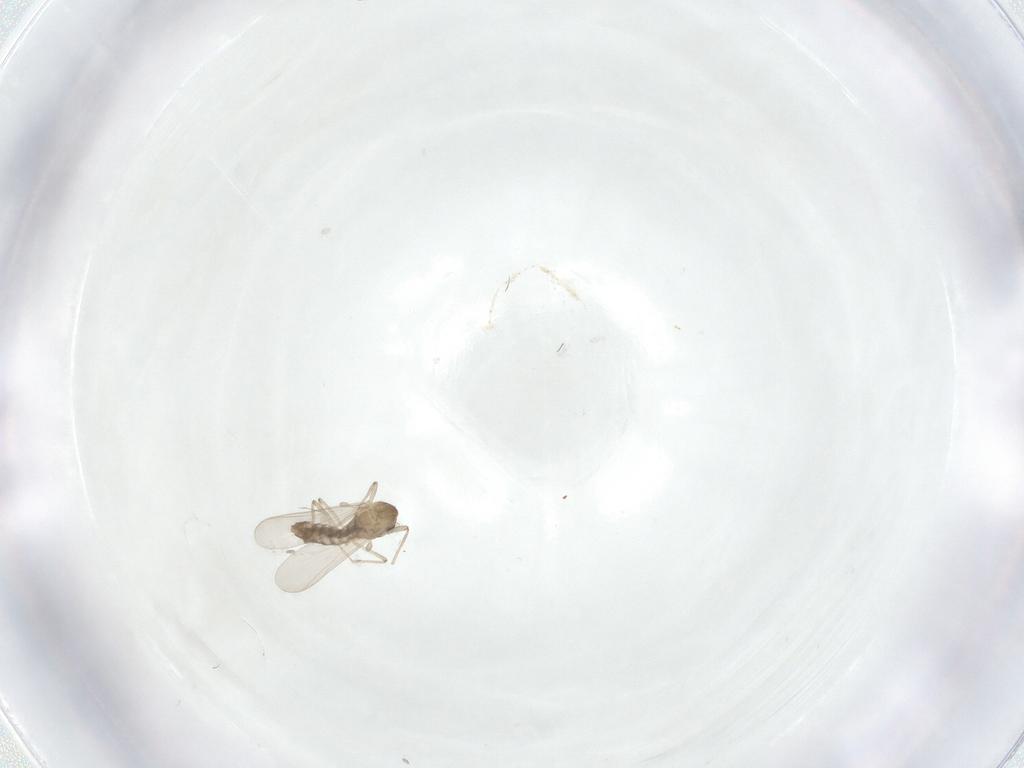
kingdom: Animalia
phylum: Arthropoda
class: Insecta
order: Diptera
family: Chironomidae
